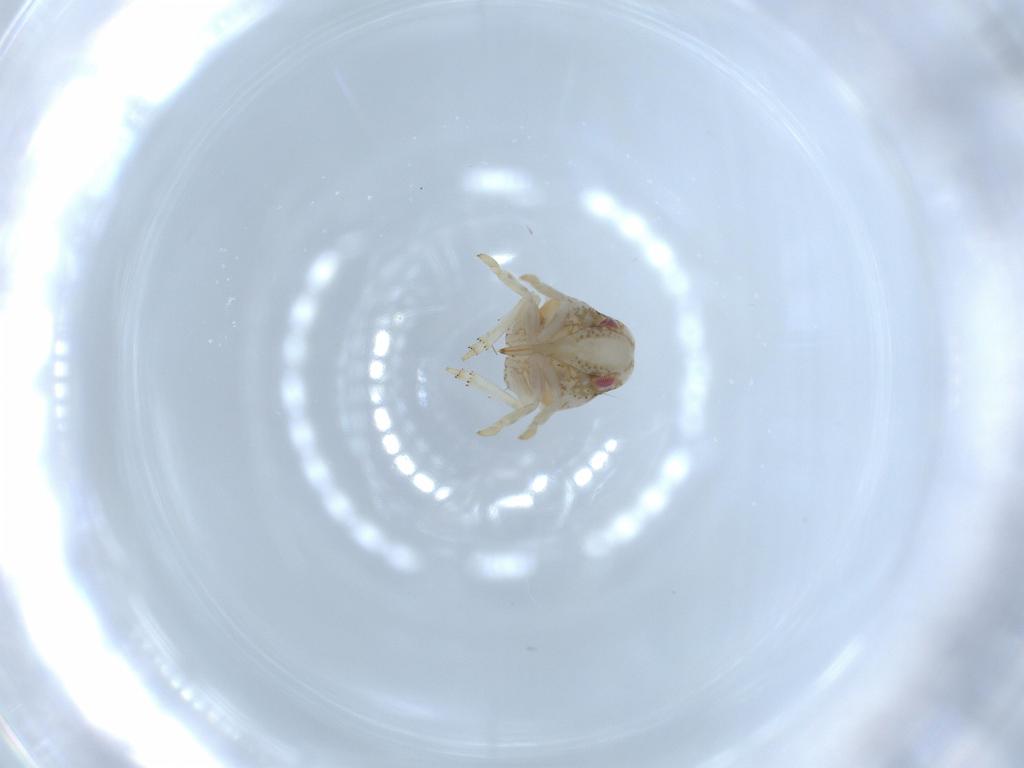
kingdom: Animalia
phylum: Arthropoda
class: Insecta
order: Hemiptera
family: Acanaloniidae
